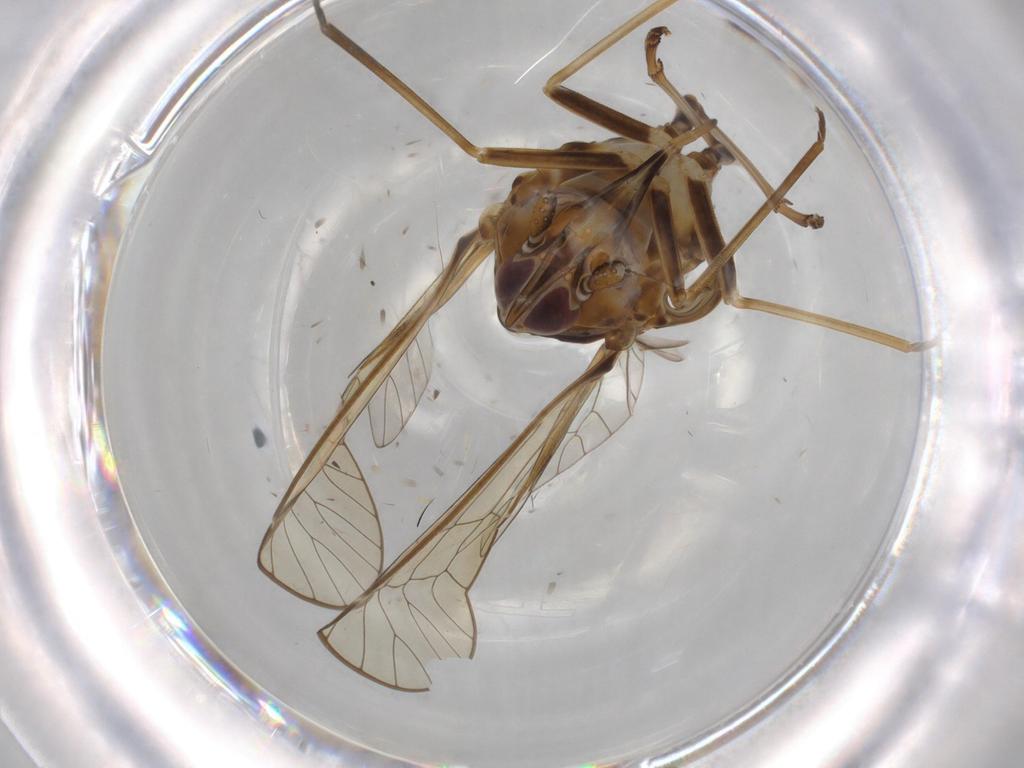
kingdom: Animalia
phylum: Arthropoda
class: Insecta
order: Hemiptera
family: Kinnaridae
